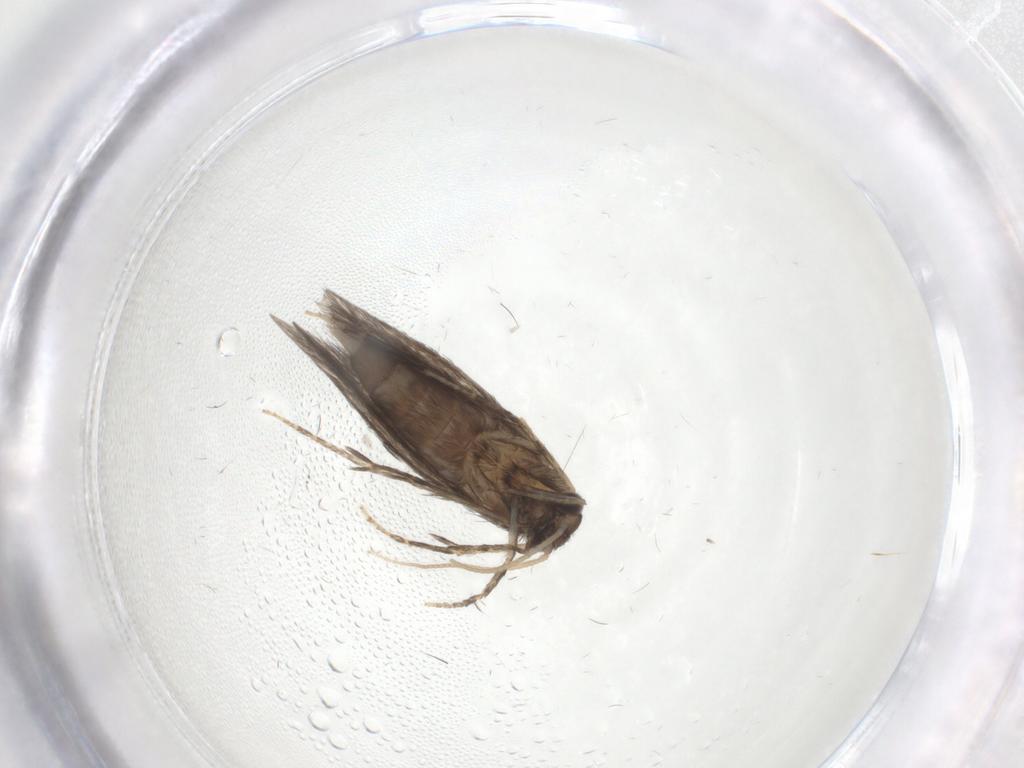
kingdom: Animalia
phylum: Arthropoda
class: Insecta
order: Trichoptera
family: Hydroptilidae
